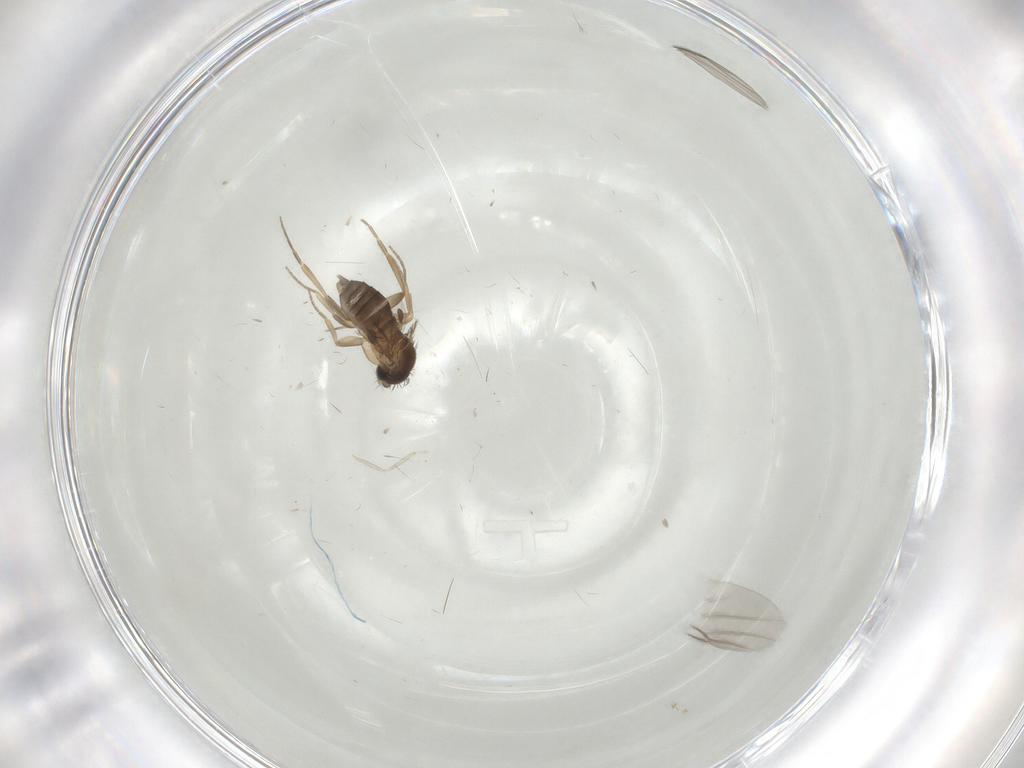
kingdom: Animalia
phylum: Arthropoda
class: Insecta
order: Diptera
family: Cecidomyiidae
